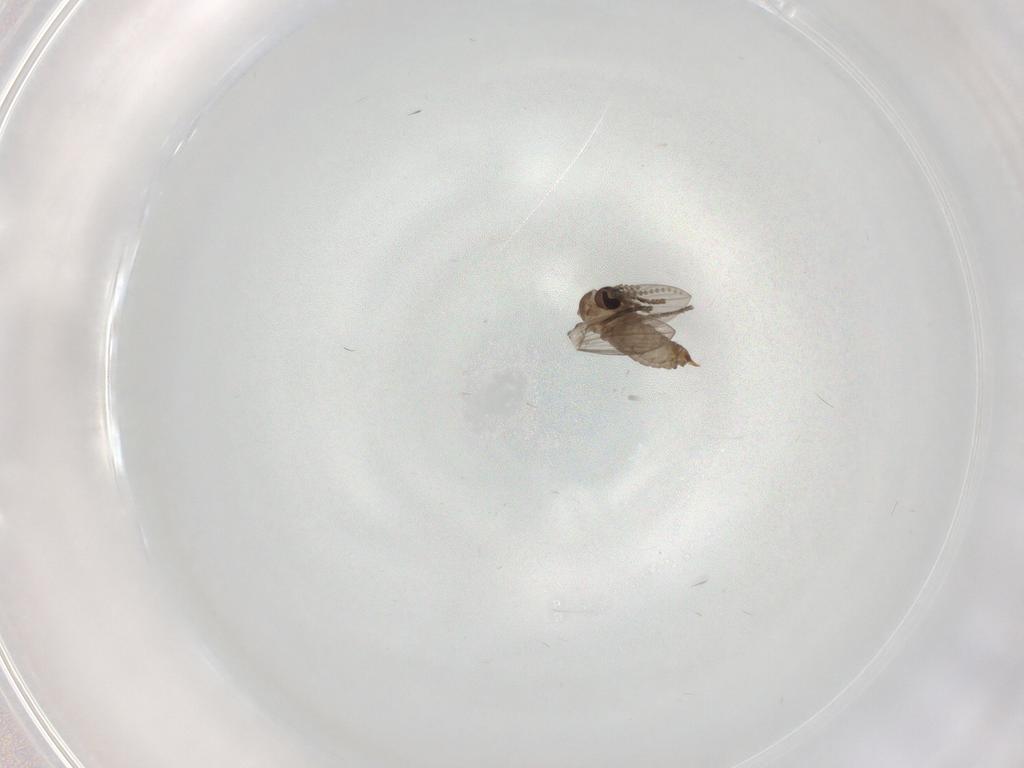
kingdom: Animalia
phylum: Arthropoda
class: Insecta
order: Diptera
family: Psychodidae
